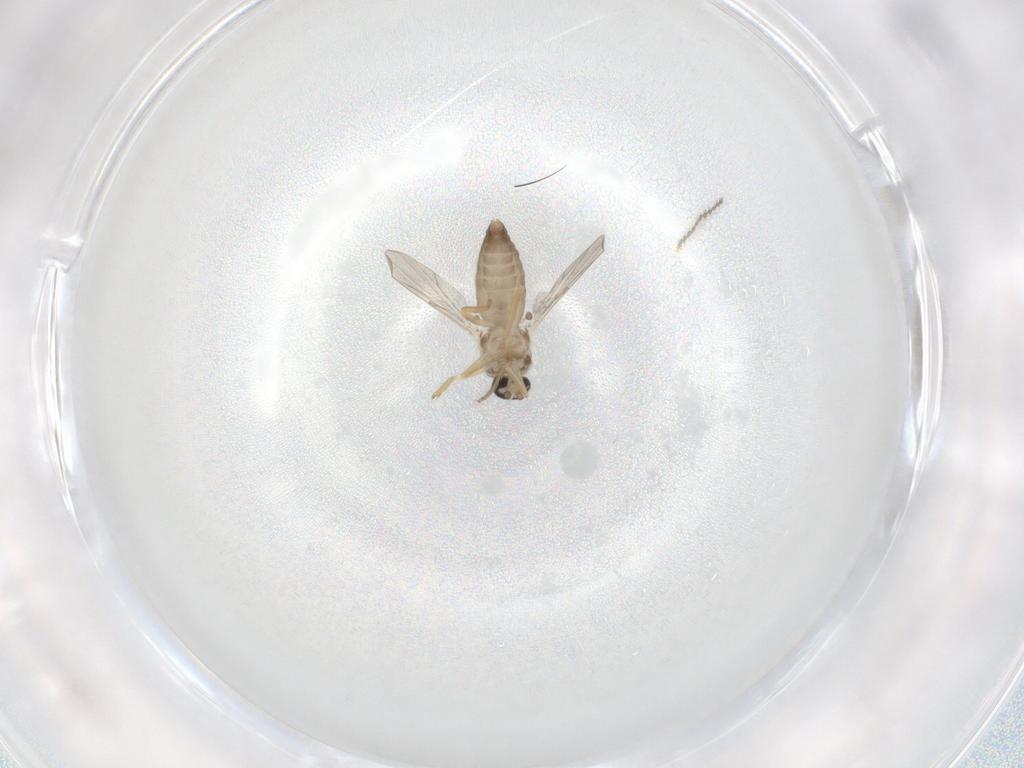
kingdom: Animalia
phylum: Arthropoda
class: Insecta
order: Diptera
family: Ceratopogonidae
